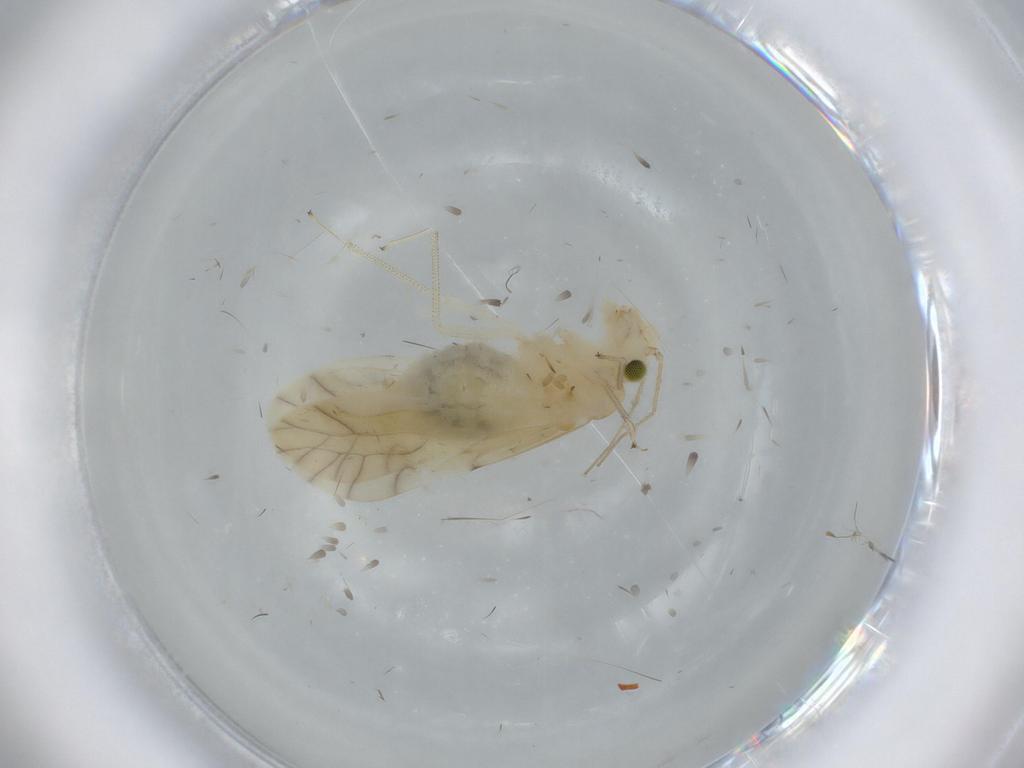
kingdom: Animalia
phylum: Arthropoda
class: Insecta
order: Psocodea
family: Caeciliusidae
